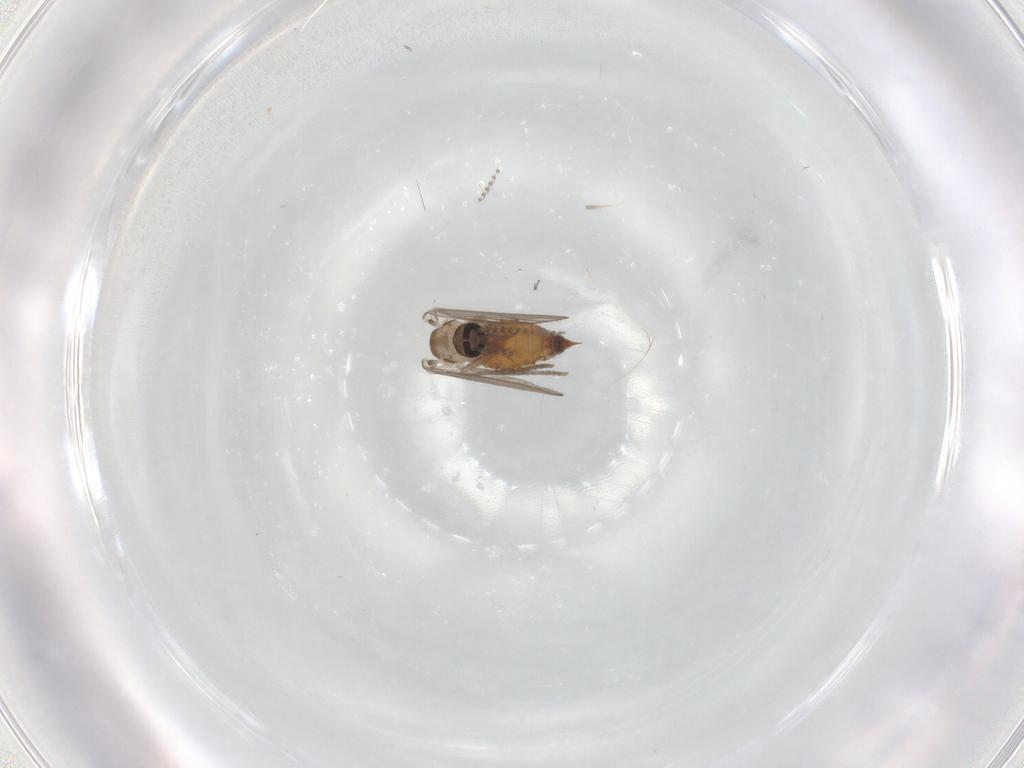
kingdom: Animalia
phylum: Arthropoda
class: Insecta
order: Diptera
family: Psychodidae
